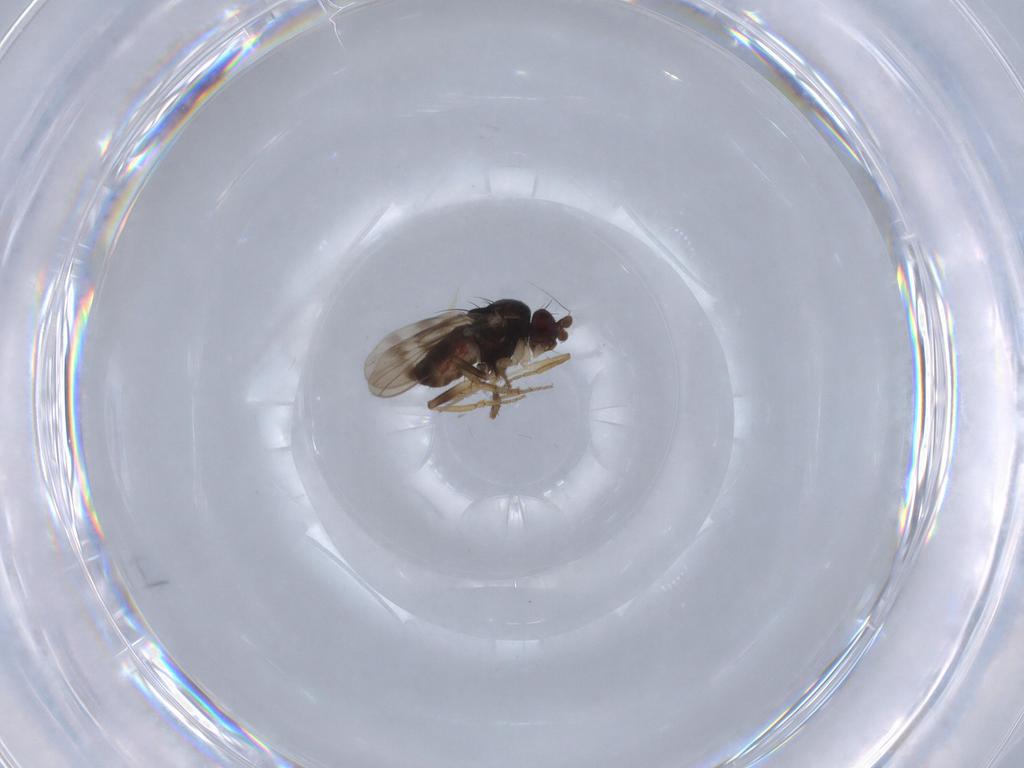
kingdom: Animalia
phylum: Arthropoda
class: Insecta
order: Diptera
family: Sphaeroceridae
